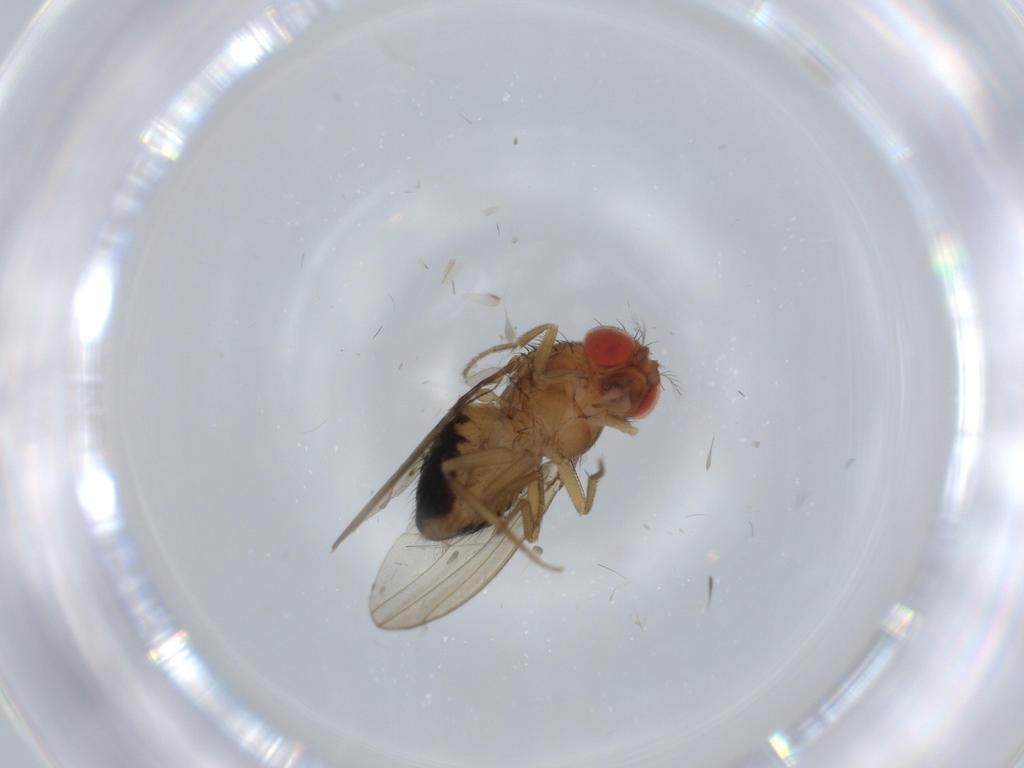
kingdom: Animalia
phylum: Arthropoda
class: Insecta
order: Diptera
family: Drosophilidae
